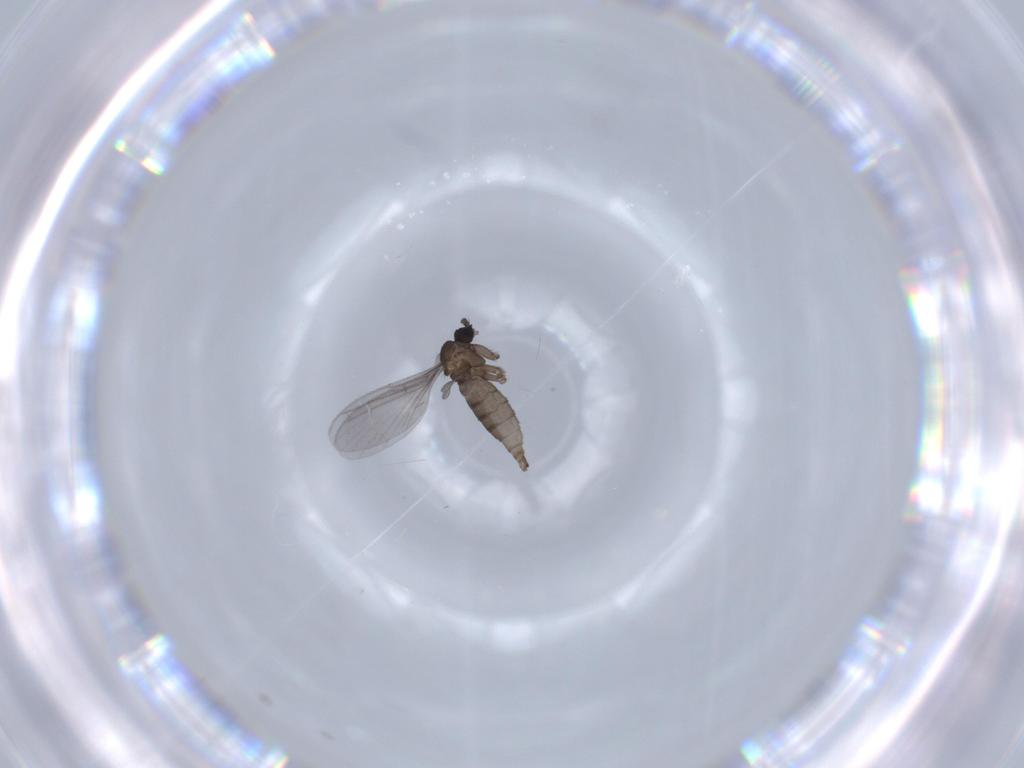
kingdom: Animalia
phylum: Arthropoda
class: Insecta
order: Diptera
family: Sciaridae
